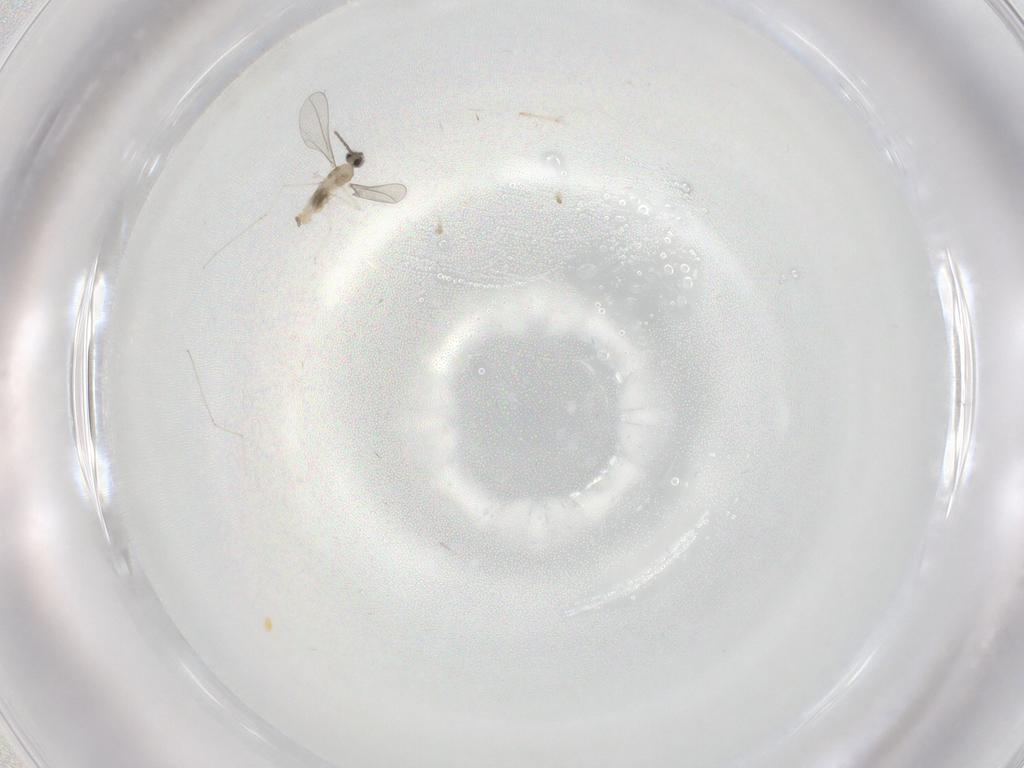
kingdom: Animalia
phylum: Arthropoda
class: Insecta
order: Diptera
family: Cecidomyiidae
